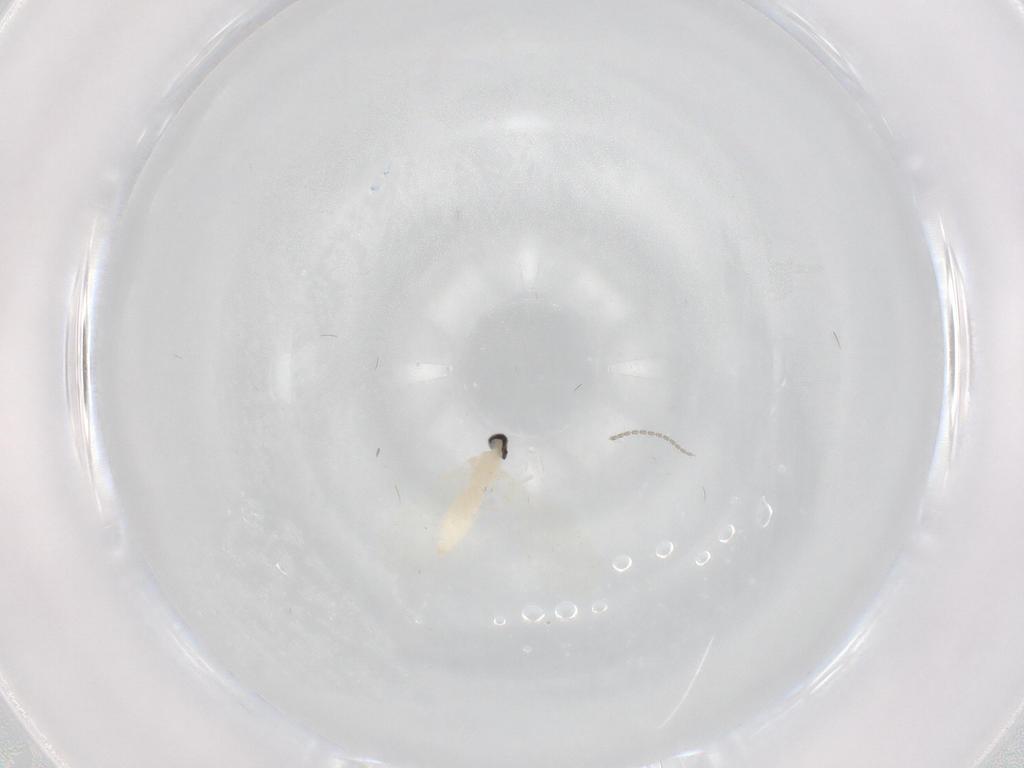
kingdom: Animalia
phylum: Arthropoda
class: Insecta
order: Diptera
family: Cecidomyiidae
